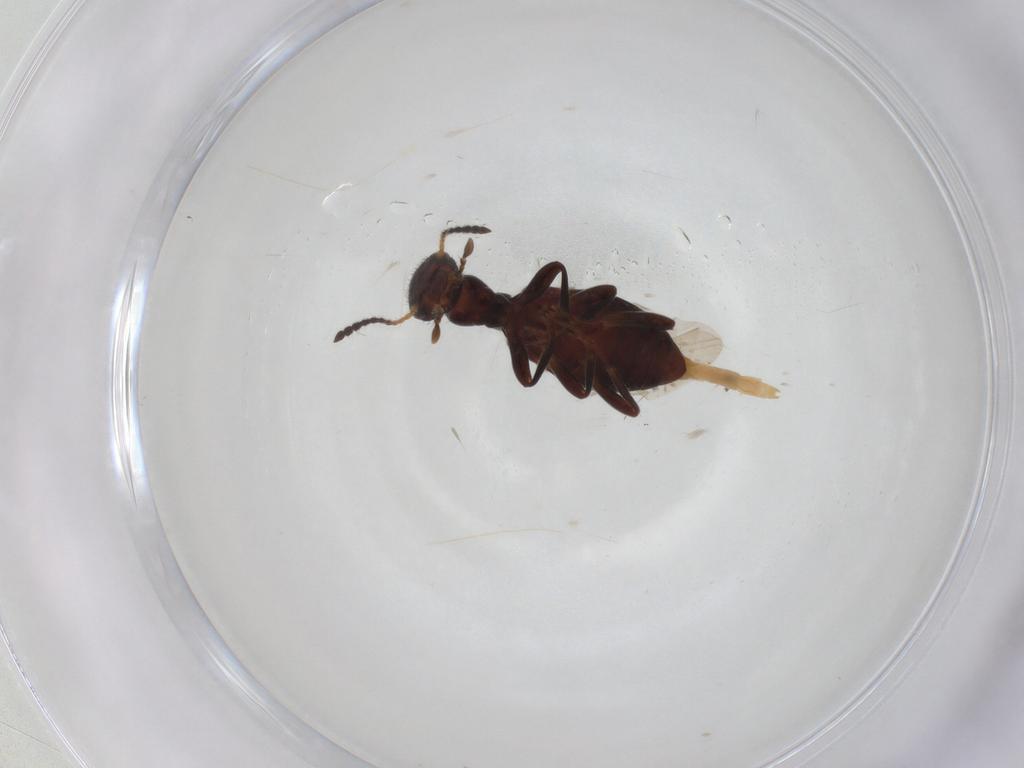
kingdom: Animalia
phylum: Arthropoda
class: Insecta
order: Coleoptera
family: Anthicidae
